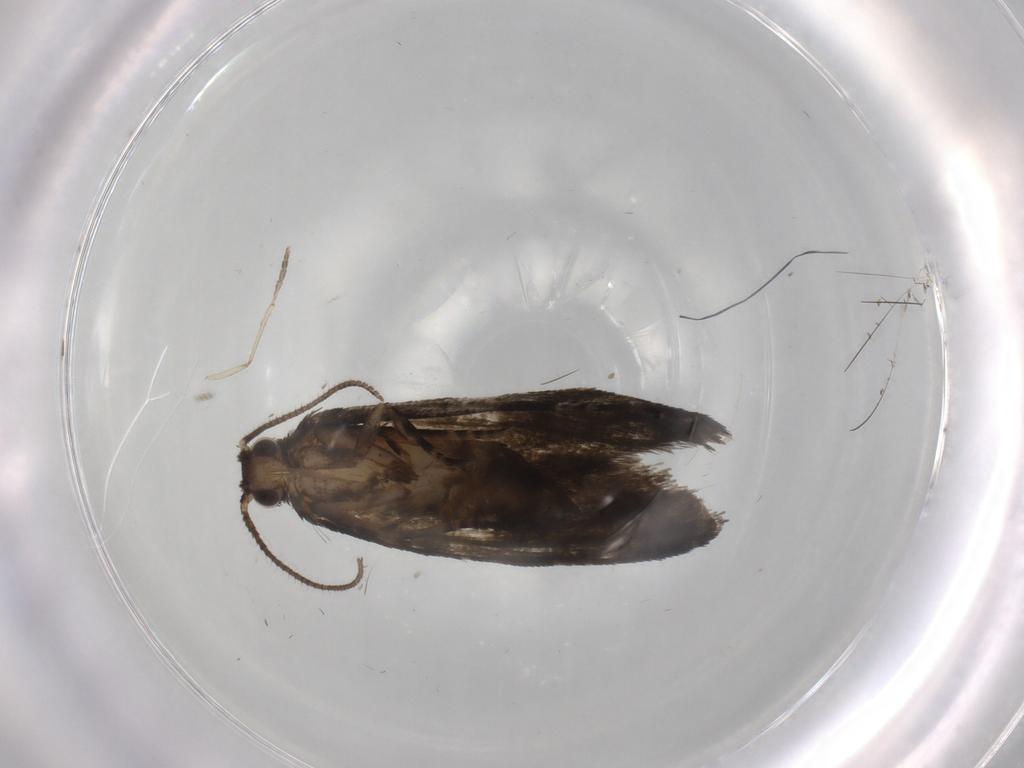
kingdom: Animalia
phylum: Arthropoda
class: Insecta
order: Lepidoptera
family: Tortricidae
